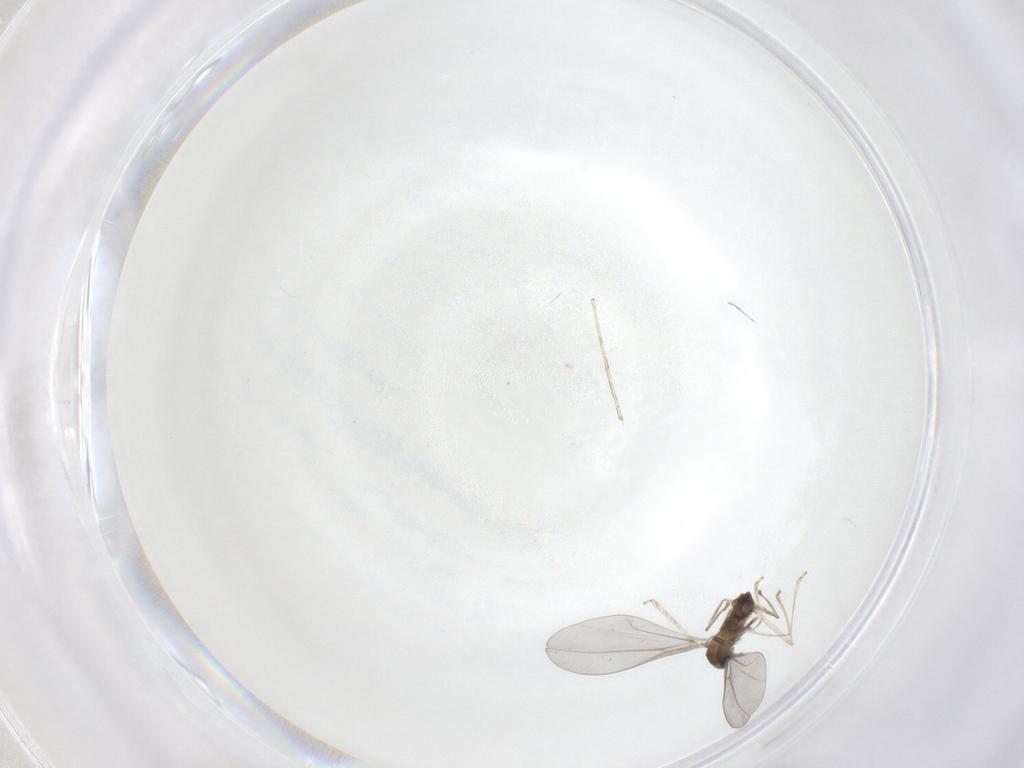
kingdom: Animalia
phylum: Arthropoda
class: Insecta
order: Diptera
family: Cecidomyiidae
